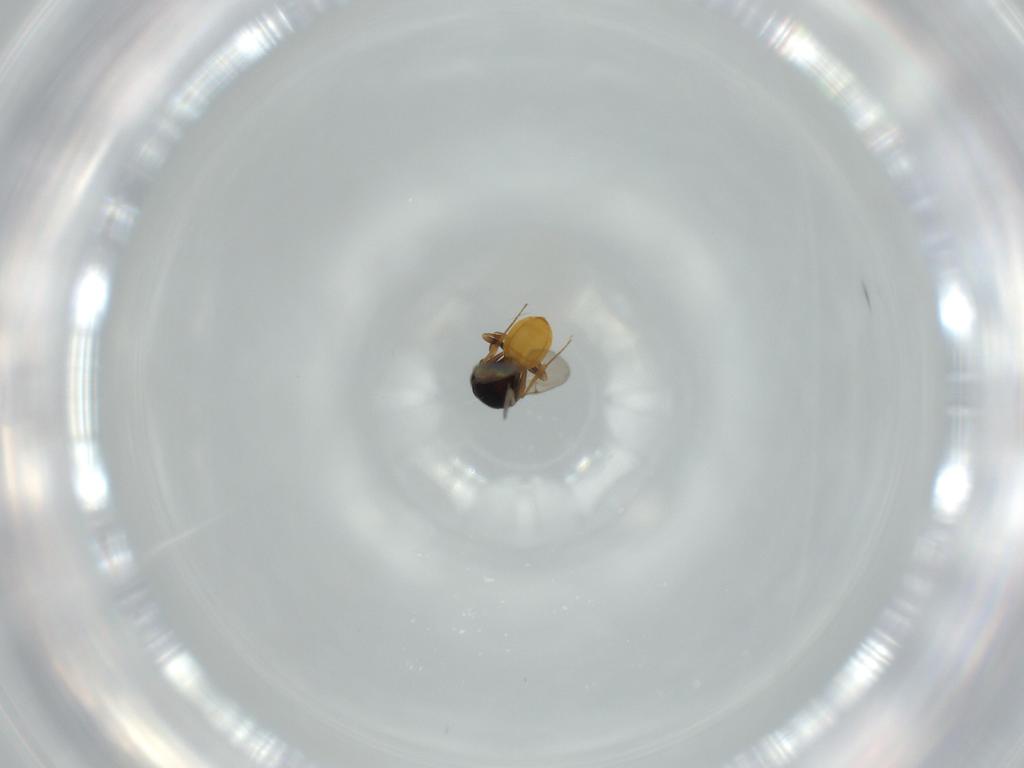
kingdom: Animalia
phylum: Arthropoda
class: Insecta
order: Hymenoptera
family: Scelionidae
